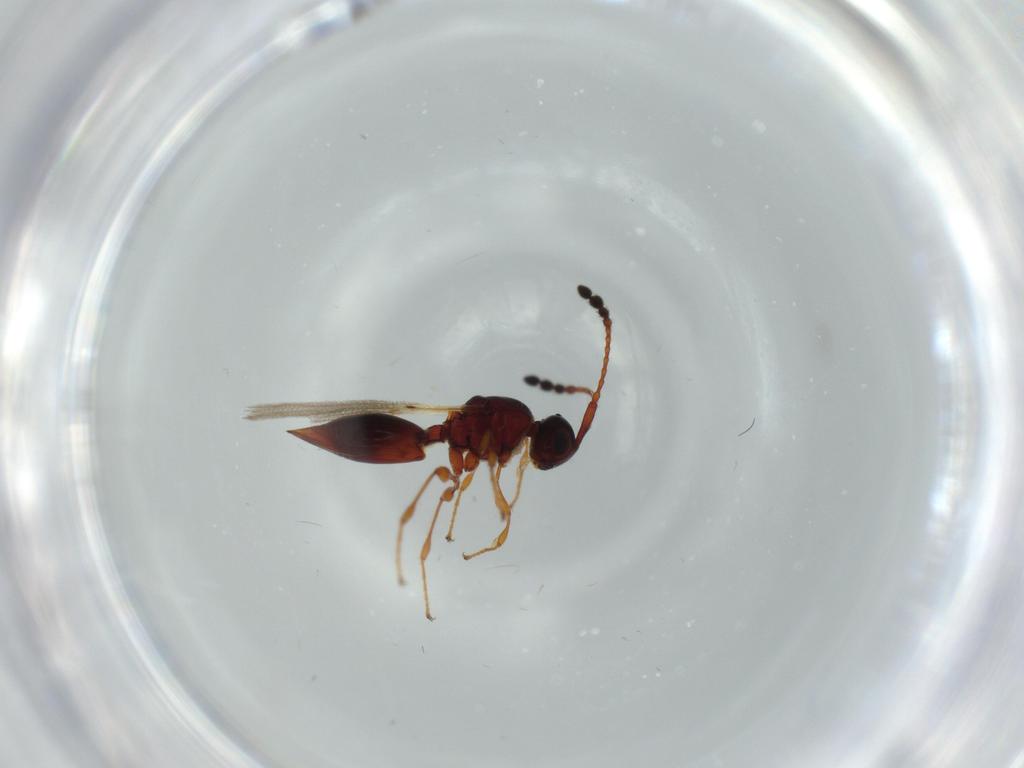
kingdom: Animalia
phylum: Arthropoda
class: Insecta
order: Hymenoptera
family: Diapriidae
